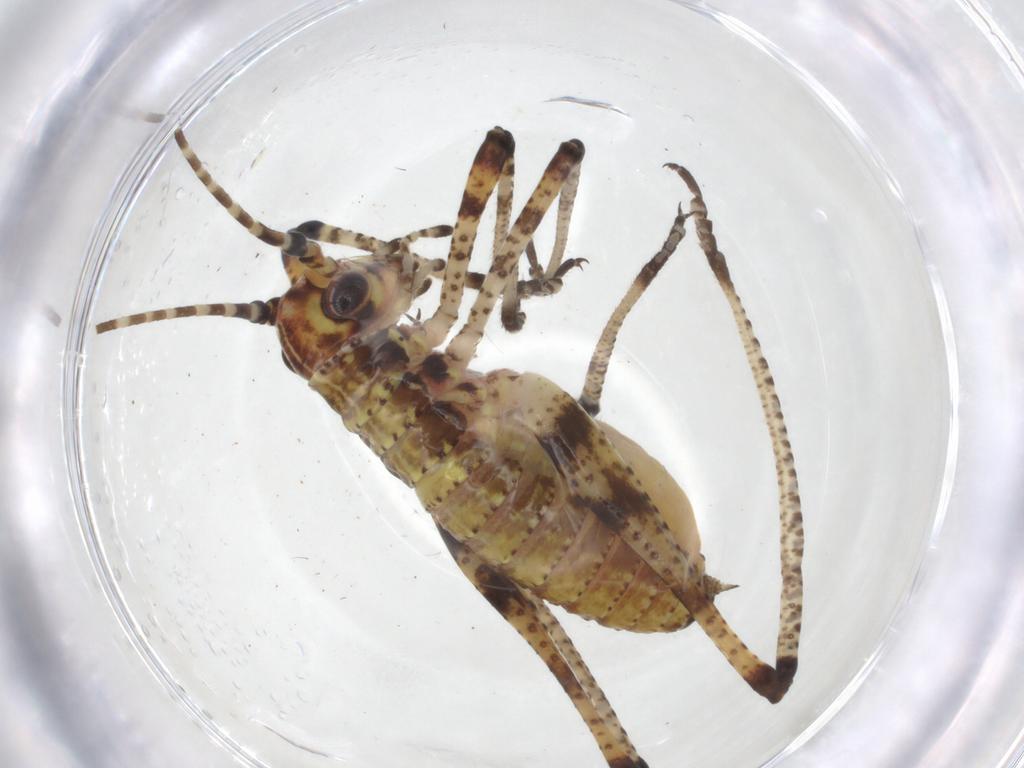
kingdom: Animalia
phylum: Arthropoda
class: Insecta
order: Orthoptera
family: Tettigoniidae
